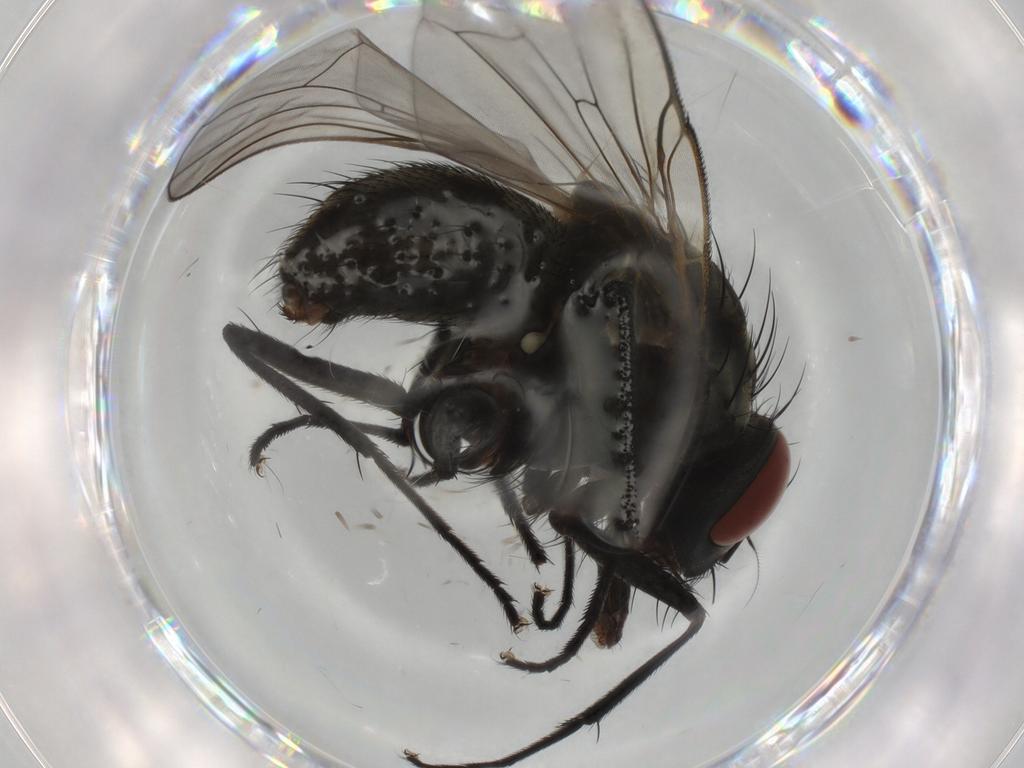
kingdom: Animalia
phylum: Arthropoda
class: Insecta
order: Diptera
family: Muscidae
